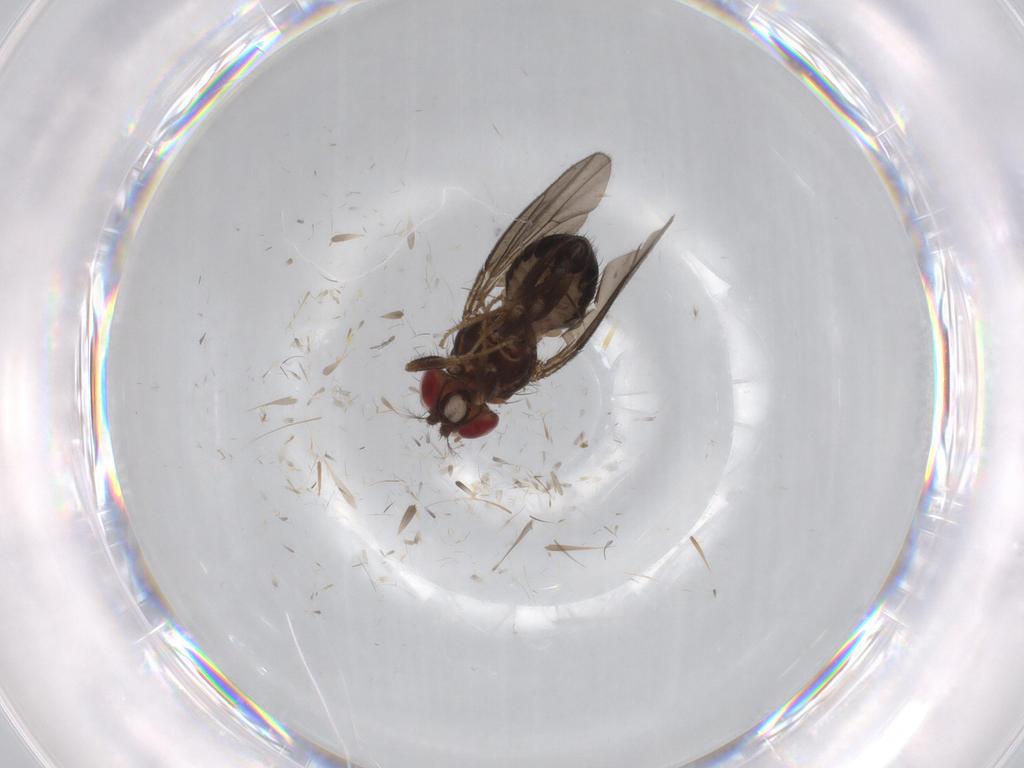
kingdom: Animalia
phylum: Arthropoda
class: Insecta
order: Diptera
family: Drosophilidae
